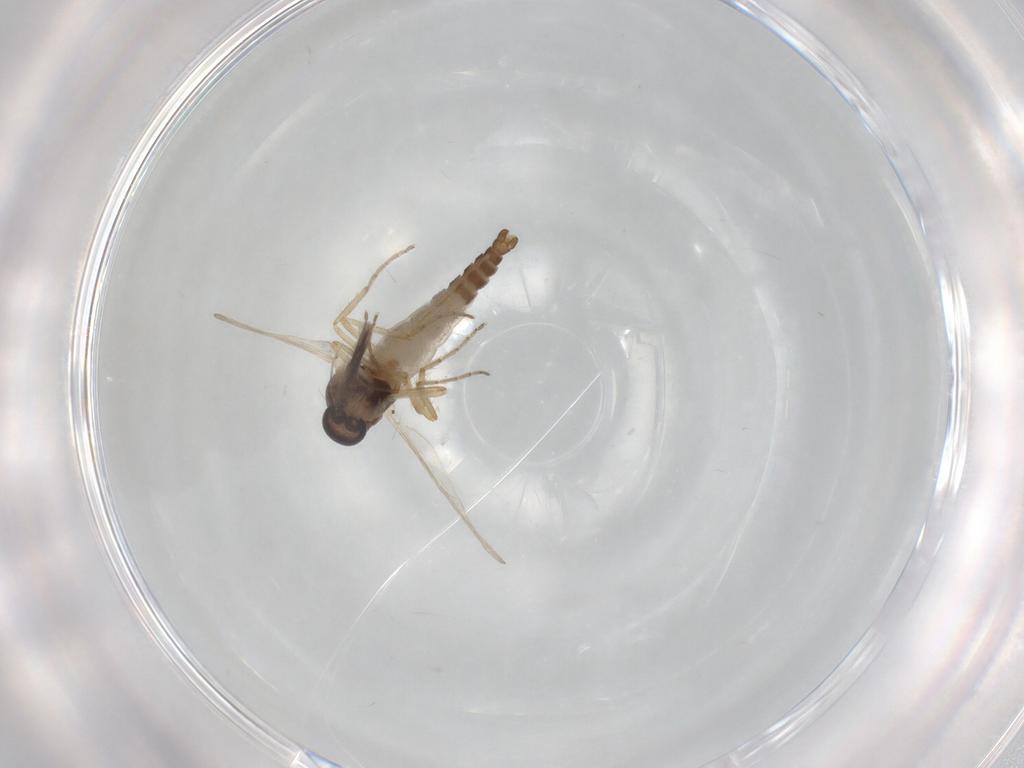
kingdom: Animalia
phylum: Arthropoda
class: Insecta
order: Diptera
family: Ceratopogonidae
